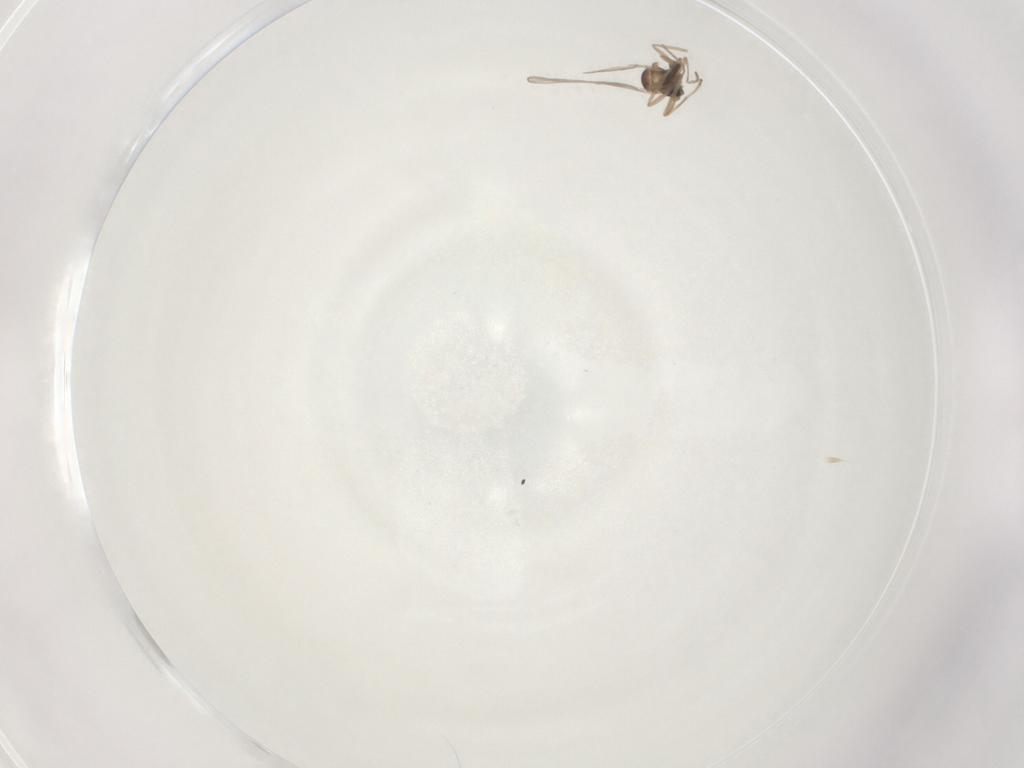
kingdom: Animalia
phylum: Arthropoda
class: Insecta
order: Diptera
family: Cecidomyiidae
